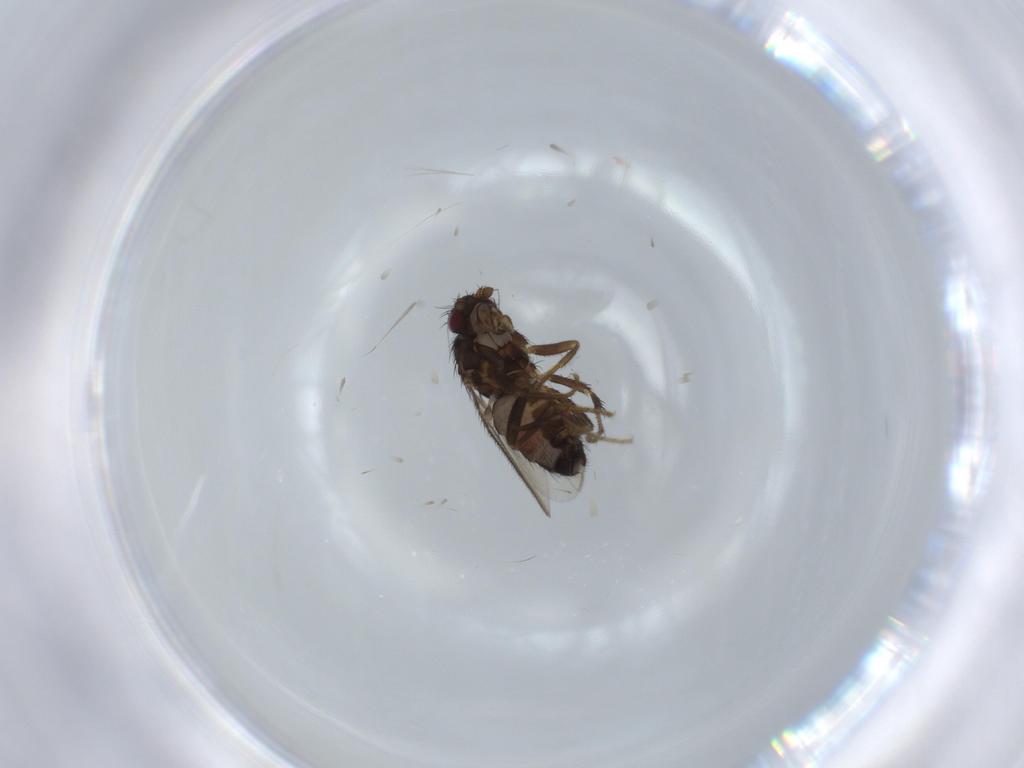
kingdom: Animalia
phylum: Arthropoda
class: Insecta
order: Diptera
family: Sphaeroceridae
